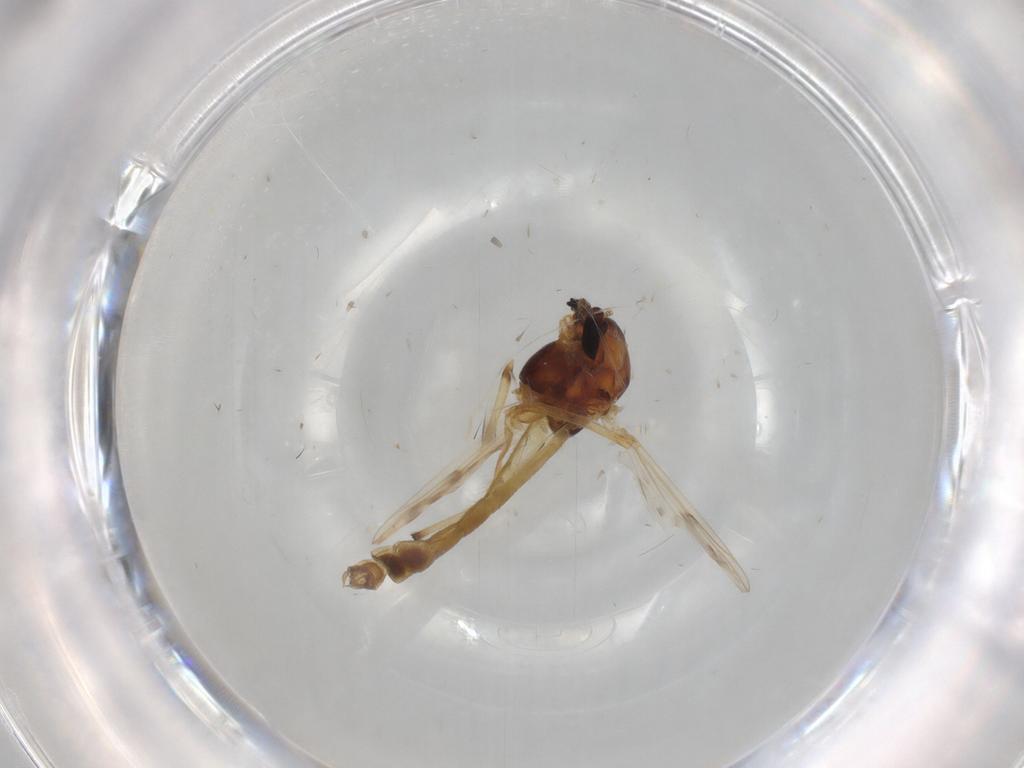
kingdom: Animalia
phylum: Arthropoda
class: Insecta
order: Diptera
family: Chironomidae
